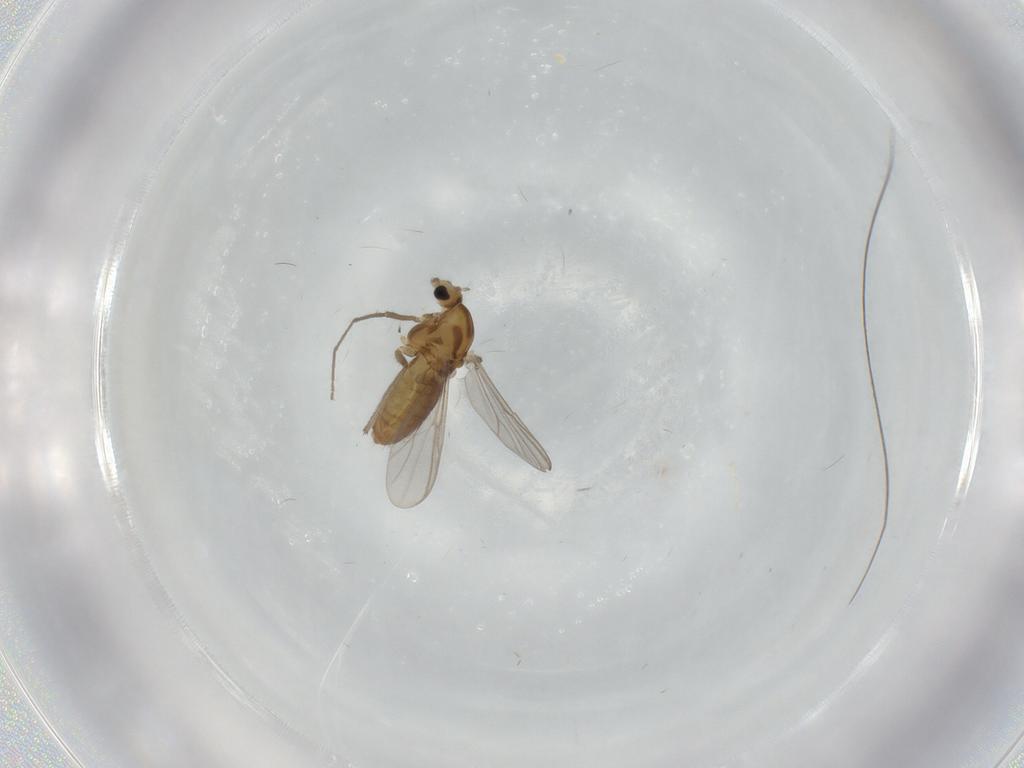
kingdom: Animalia
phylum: Arthropoda
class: Insecta
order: Diptera
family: Chironomidae
